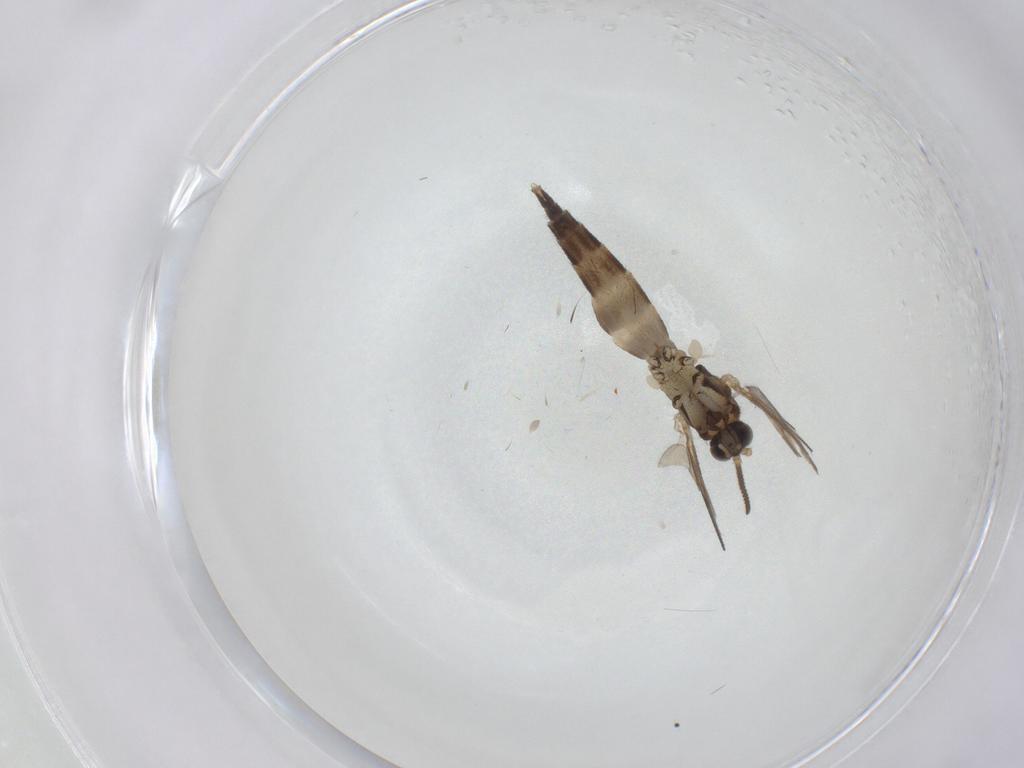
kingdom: Animalia
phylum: Arthropoda
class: Insecta
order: Diptera
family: Mycetophilidae
